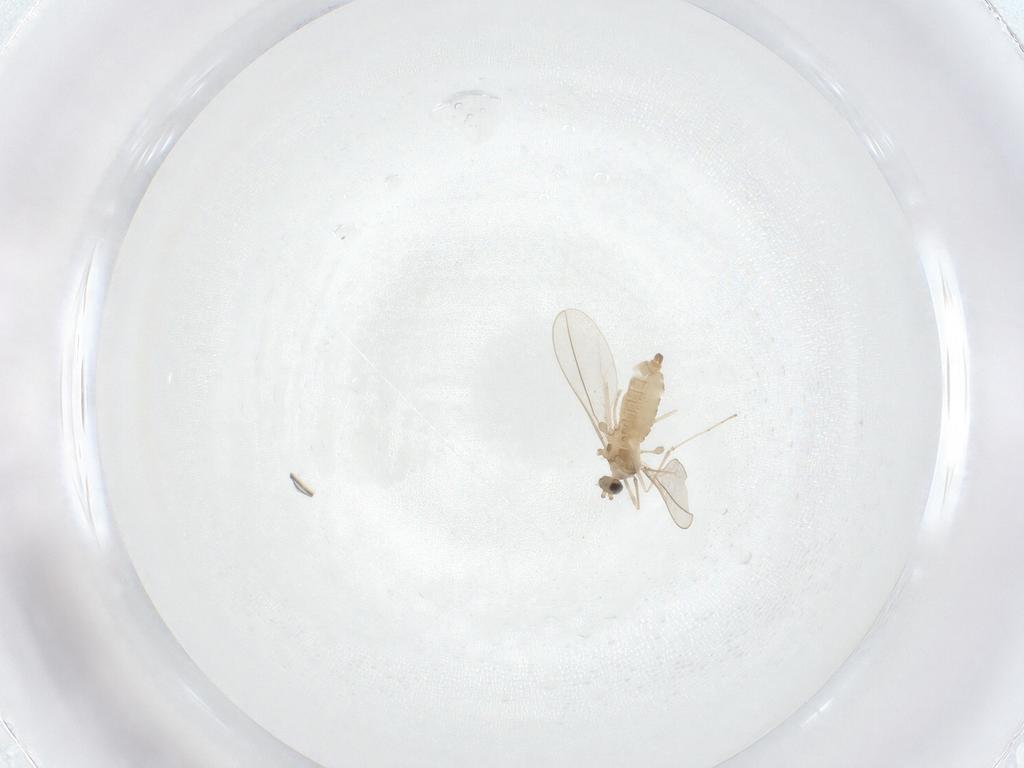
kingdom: Animalia
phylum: Arthropoda
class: Insecta
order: Diptera
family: Cecidomyiidae
